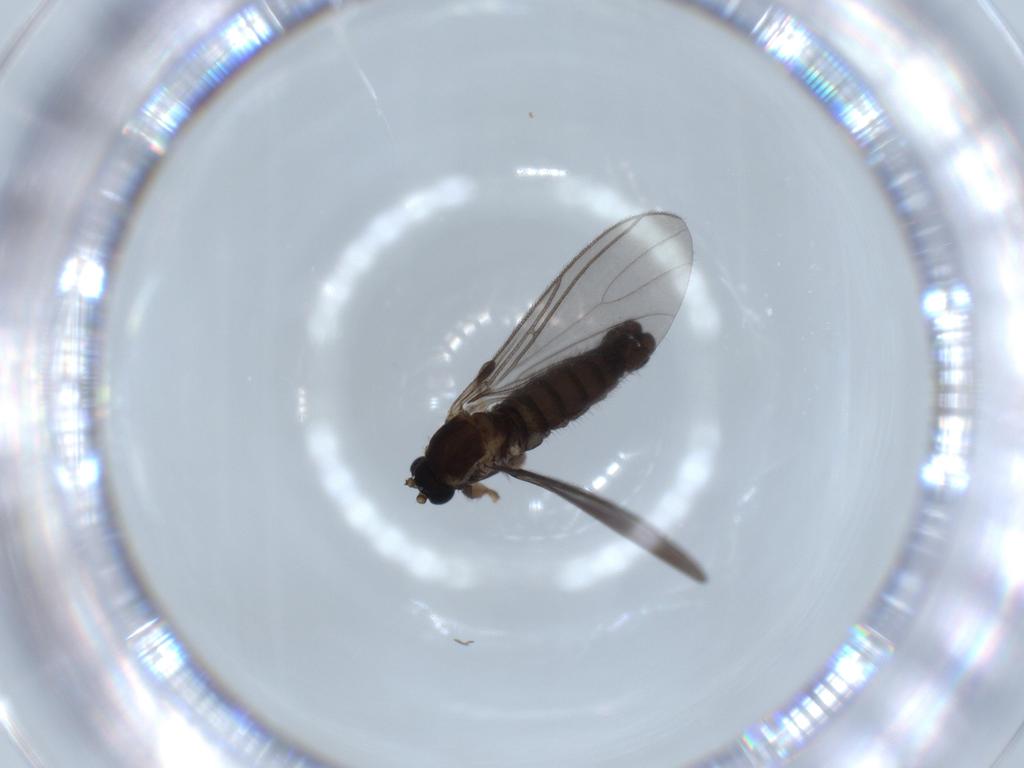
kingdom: Animalia
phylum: Arthropoda
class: Insecta
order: Diptera
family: Sciaridae
